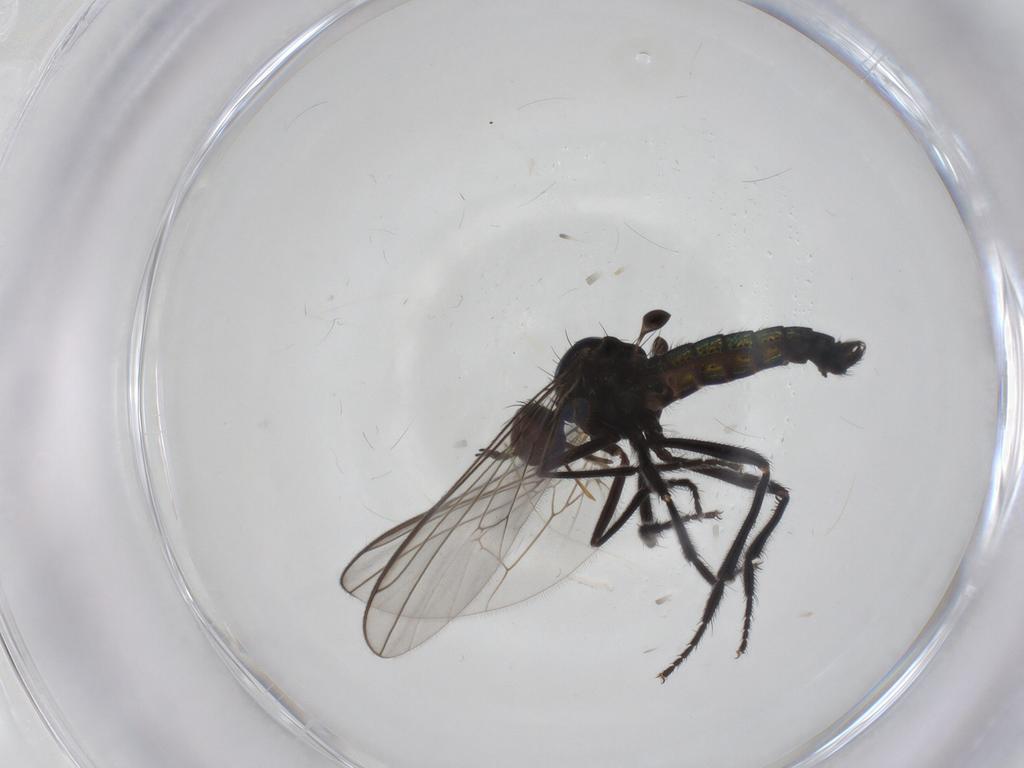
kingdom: Animalia
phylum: Arthropoda
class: Insecta
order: Diptera
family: Empididae
